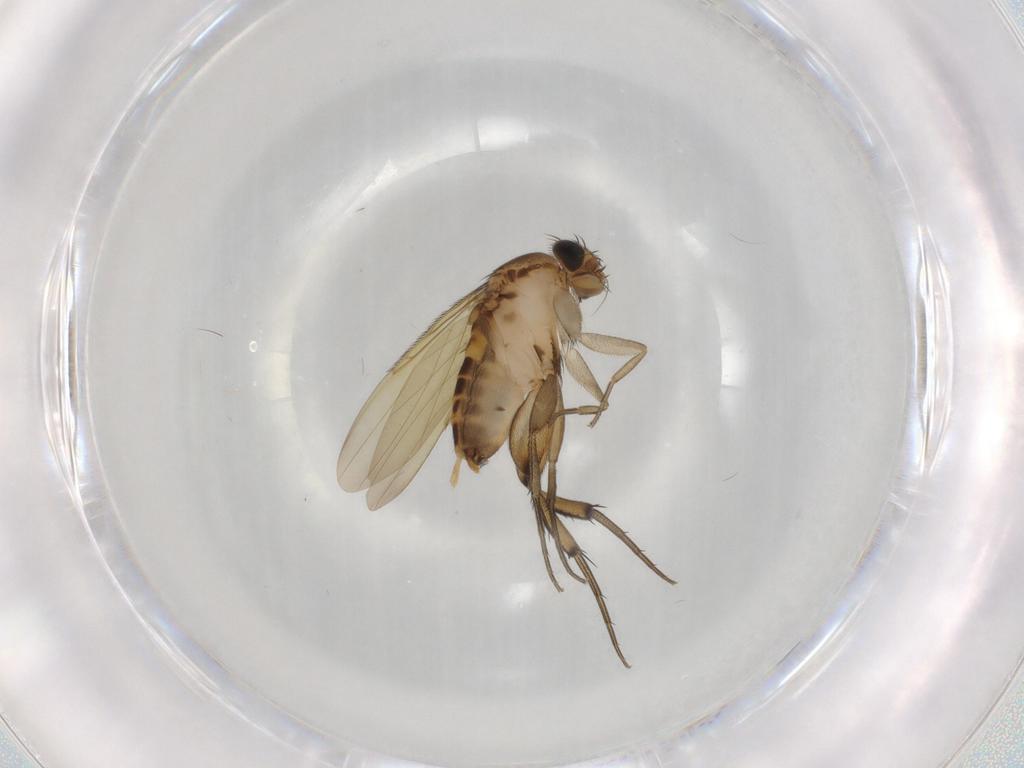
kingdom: Animalia
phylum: Arthropoda
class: Insecta
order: Diptera
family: Phoridae
